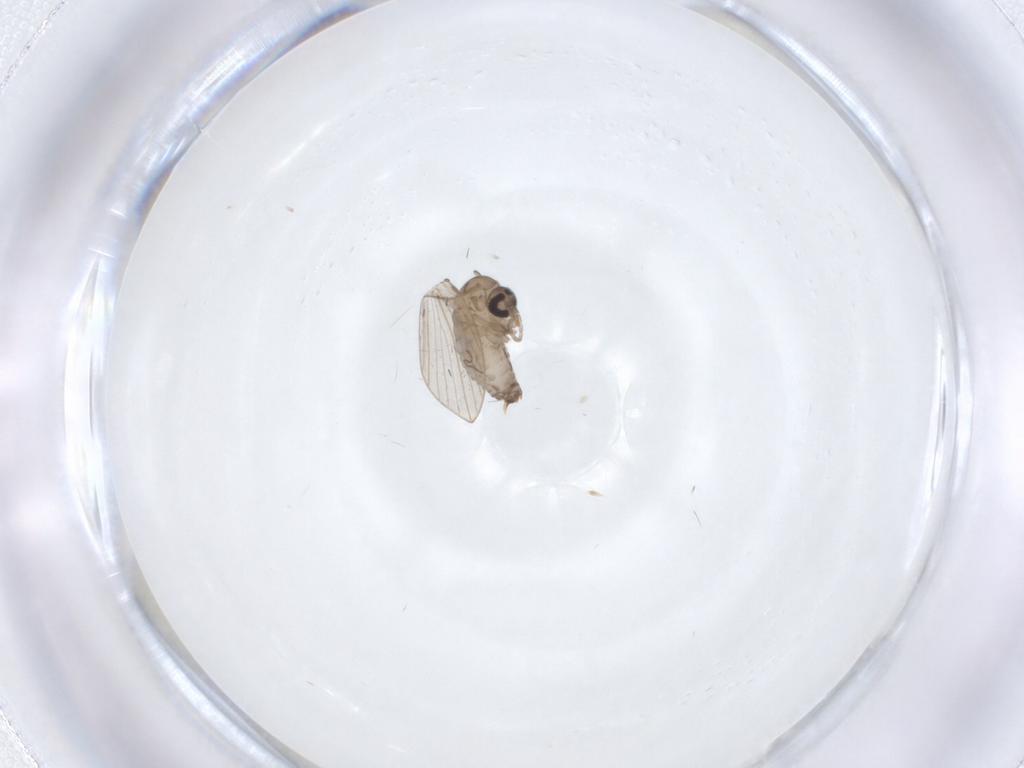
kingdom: Animalia
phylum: Arthropoda
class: Insecta
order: Diptera
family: Psychodidae
